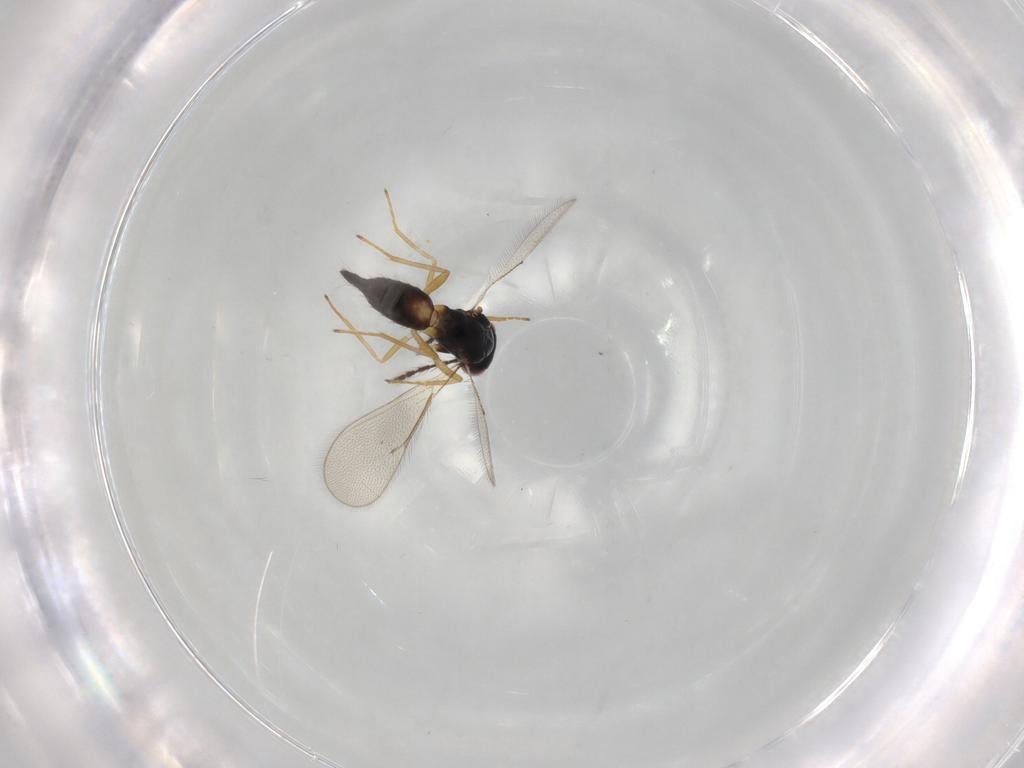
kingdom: Animalia
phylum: Arthropoda
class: Insecta
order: Hymenoptera
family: Eulophidae
